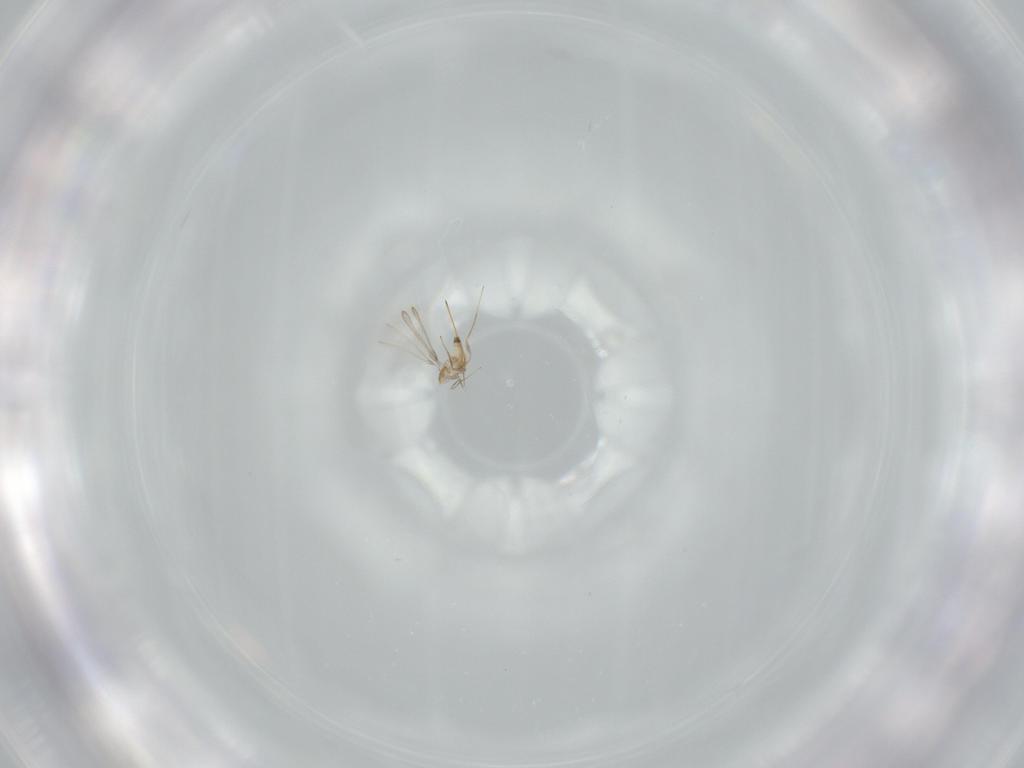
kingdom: Animalia
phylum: Arthropoda
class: Insecta
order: Hymenoptera
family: Mymaridae
